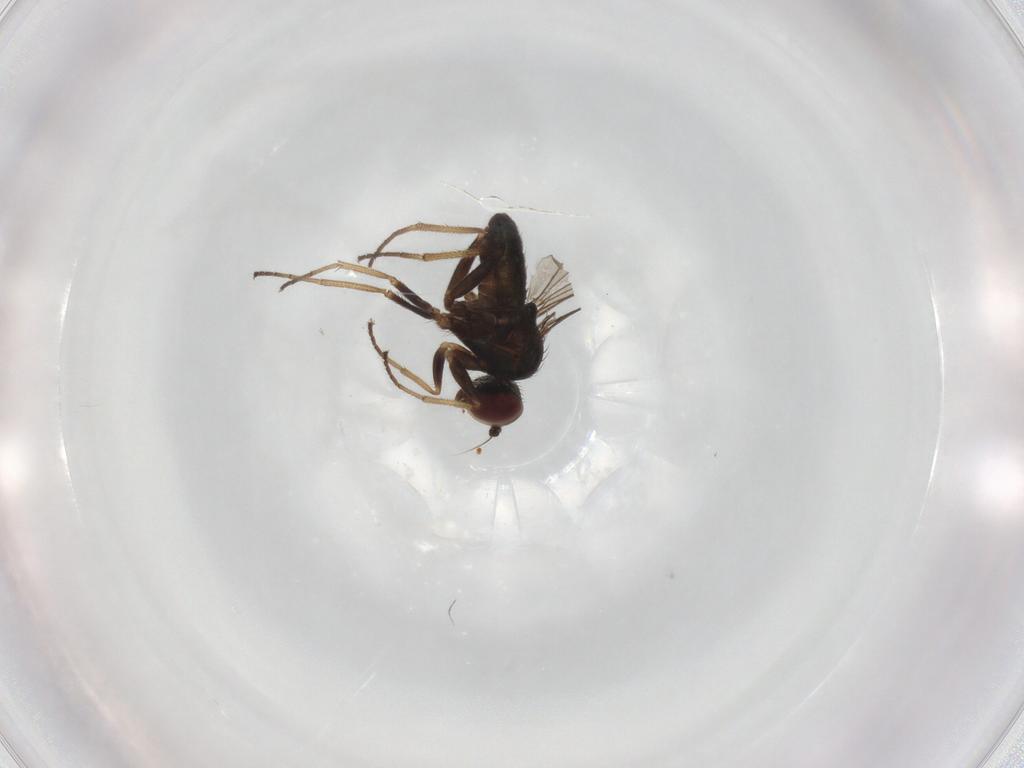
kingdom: Animalia
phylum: Arthropoda
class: Insecta
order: Diptera
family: Dolichopodidae
